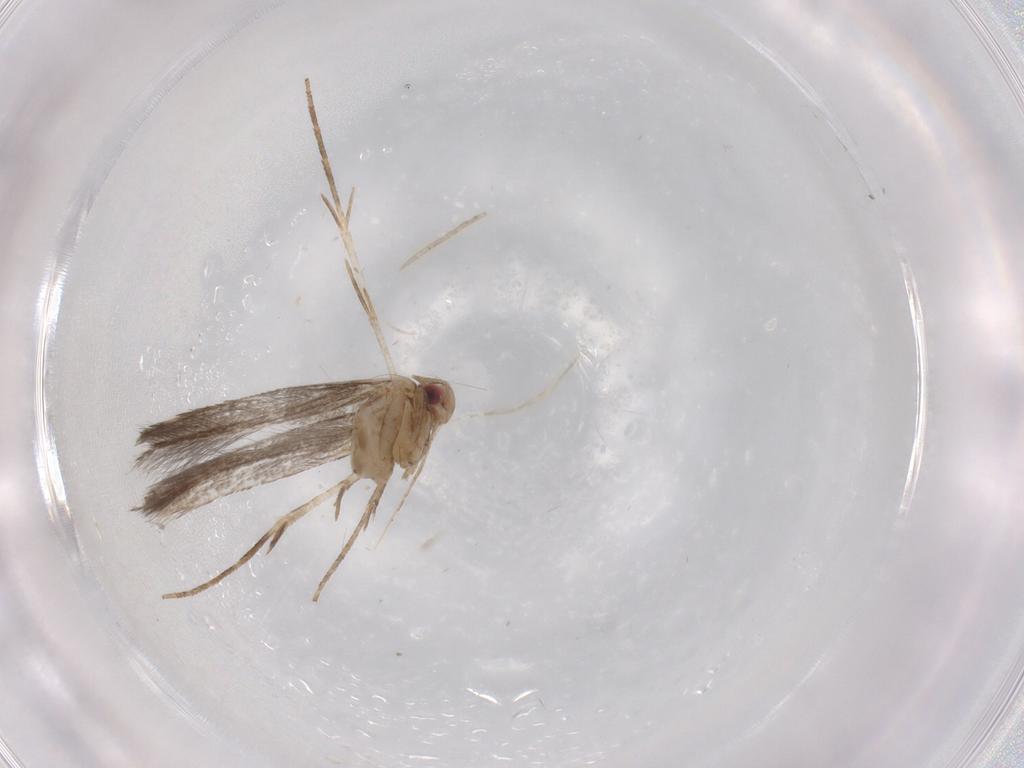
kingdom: Animalia
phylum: Arthropoda
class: Insecta
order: Lepidoptera
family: Cosmopterigidae
